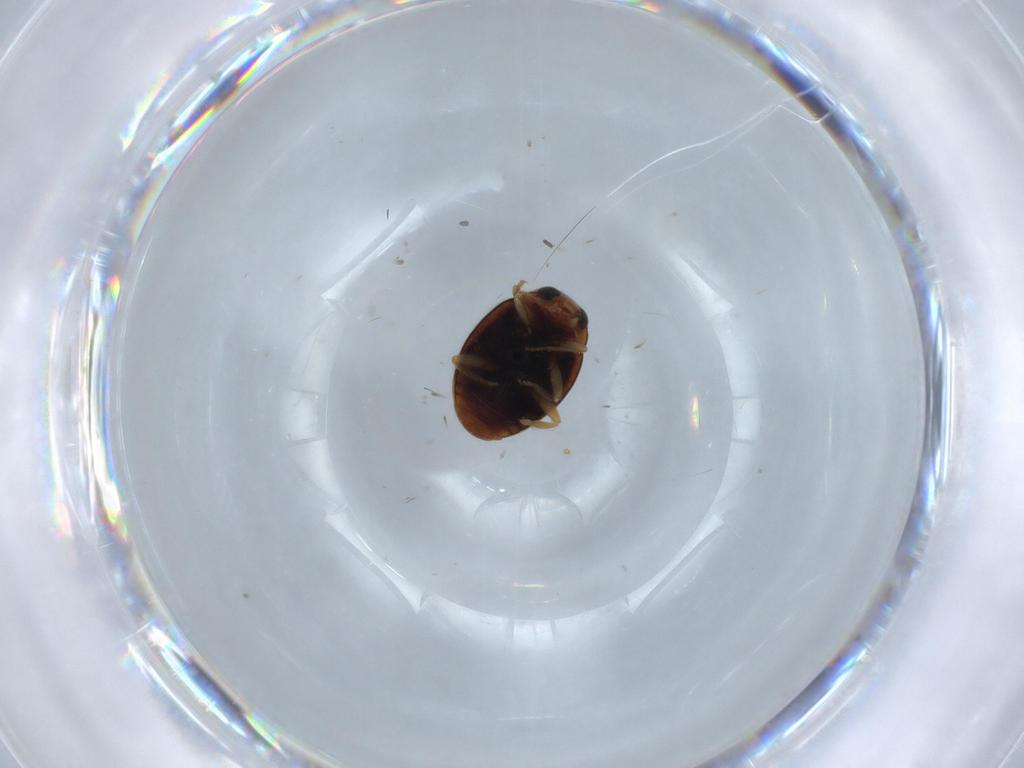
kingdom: Animalia
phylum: Arthropoda
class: Insecta
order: Coleoptera
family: Coccinellidae
